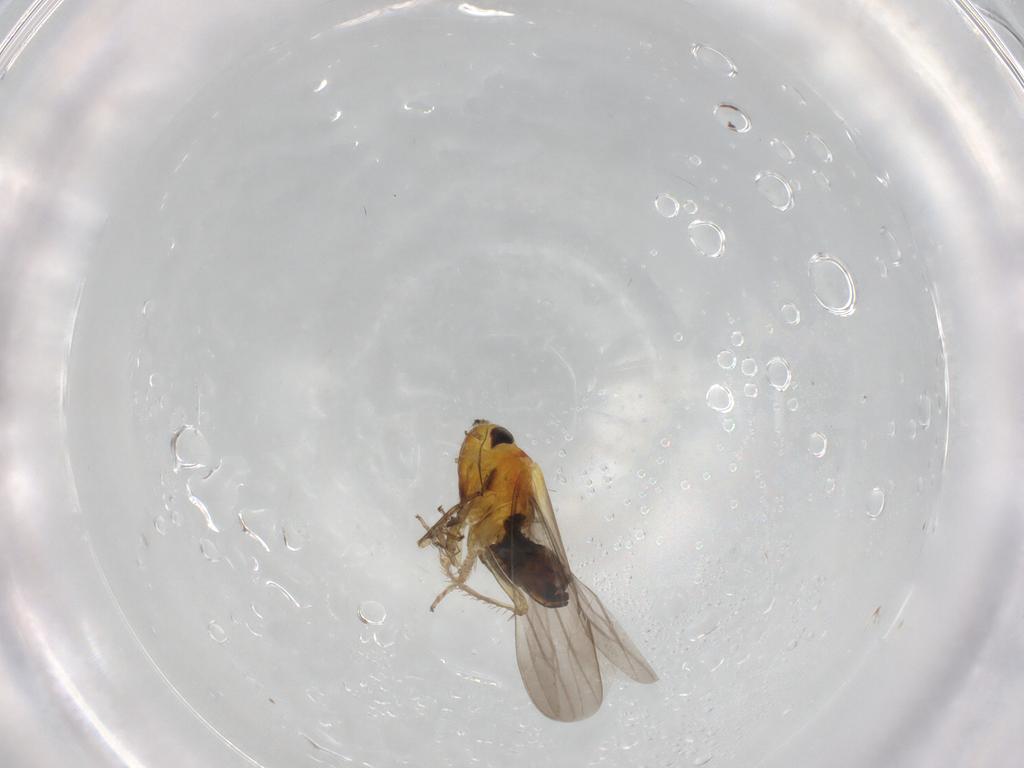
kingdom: Animalia
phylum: Arthropoda
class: Insecta
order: Hemiptera
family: Cicadellidae
